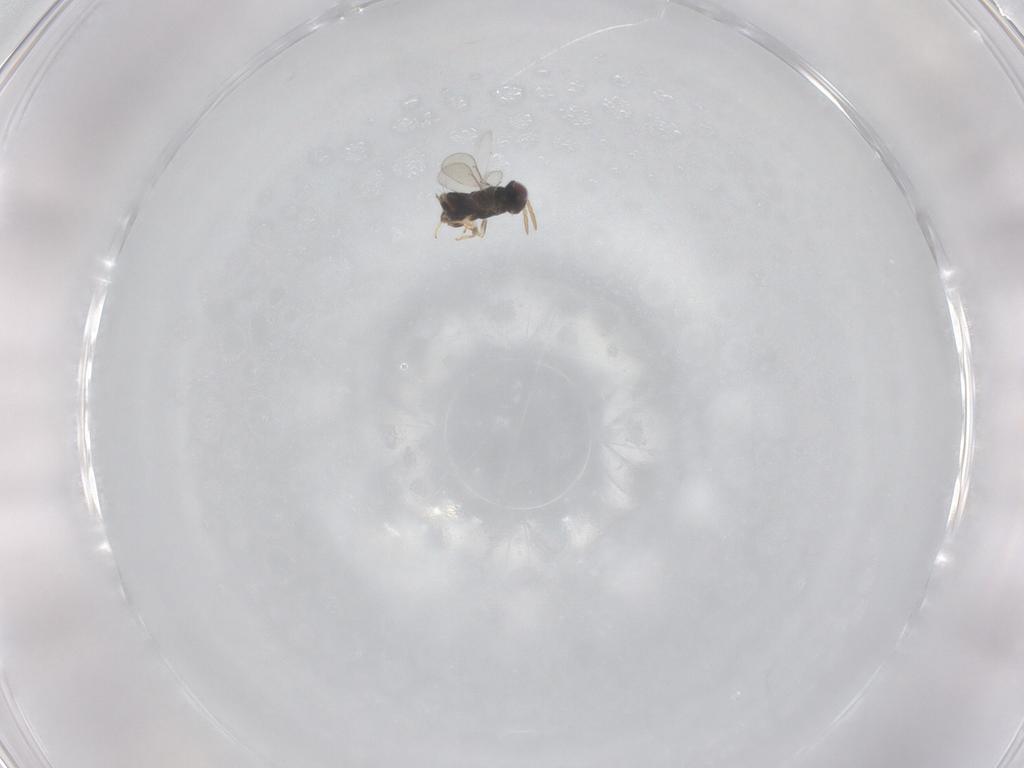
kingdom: Animalia
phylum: Arthropoda
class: Insecta
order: Hymenoptera
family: Aphelinidae
